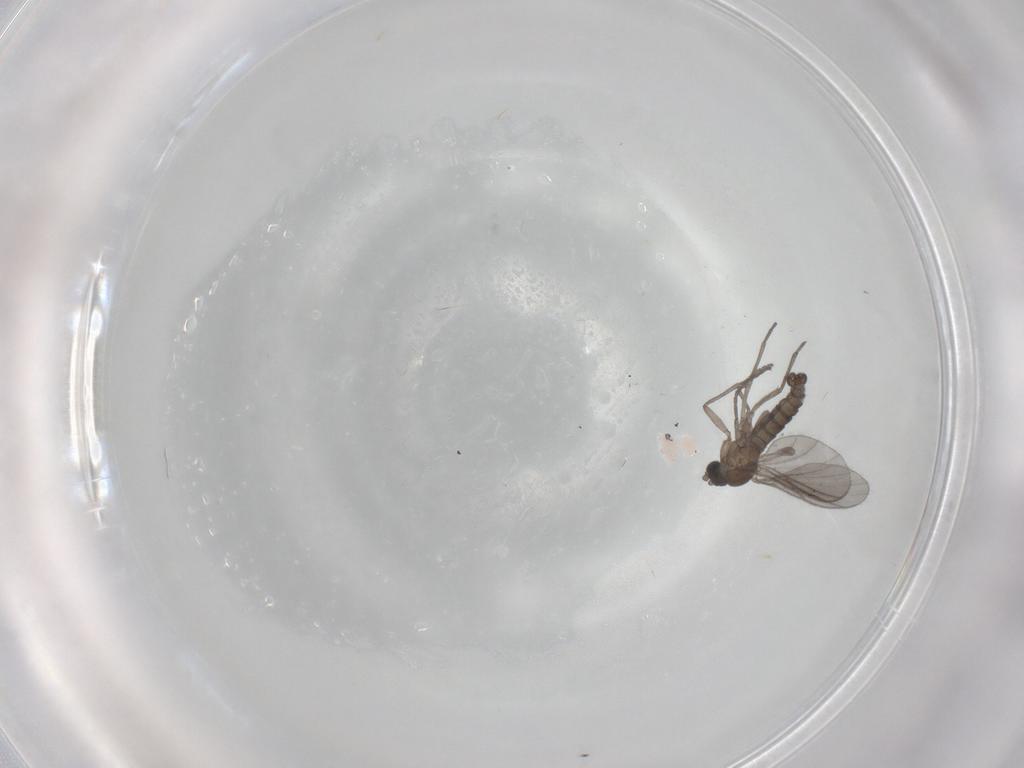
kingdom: Animalia
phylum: Arthropoda
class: Insecta
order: Diptera
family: Sciaridae
